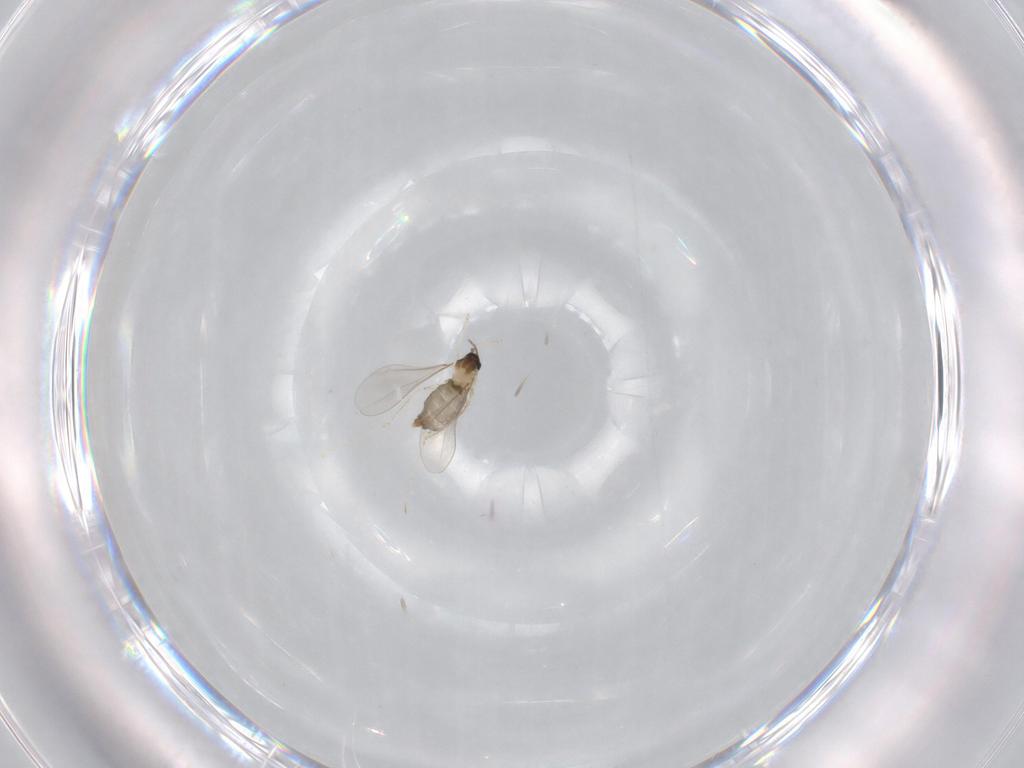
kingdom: Animalia
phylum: Arthropoda
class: Insecta
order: Diptera
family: Cecidomyiidae
